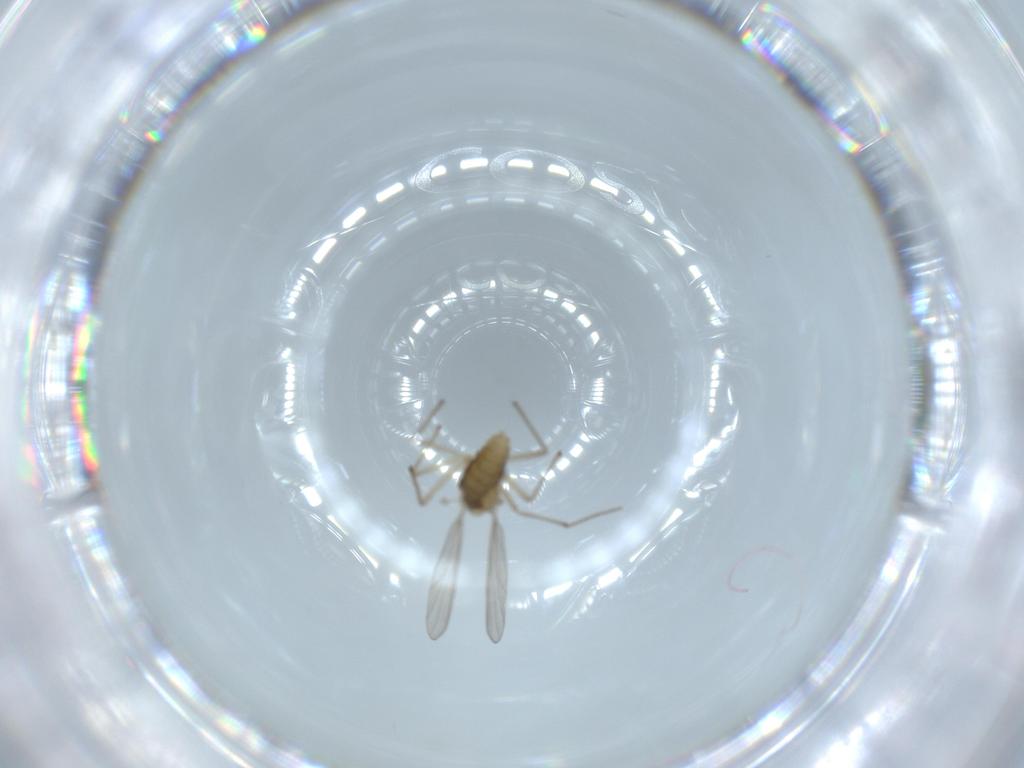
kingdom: Animalia
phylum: Arthropoda
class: Insecta
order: Diptera
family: Chironomidae
